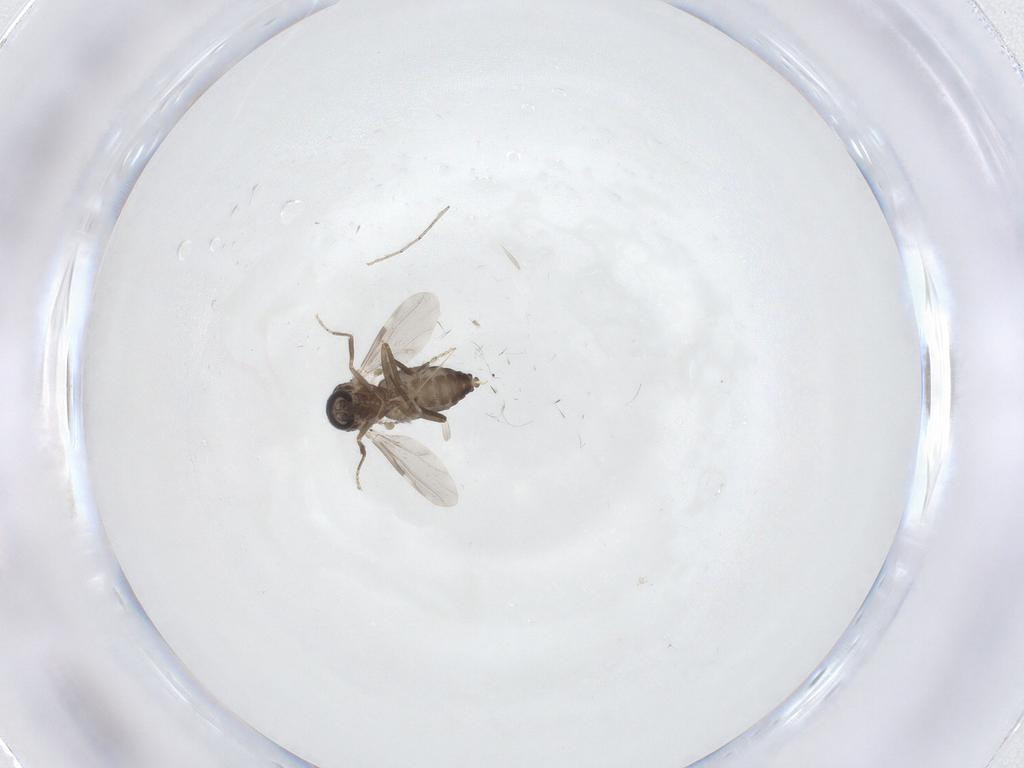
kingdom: Animalia
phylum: Arthropoda
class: Insecta
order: Diptera
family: Ceratopogonidae
